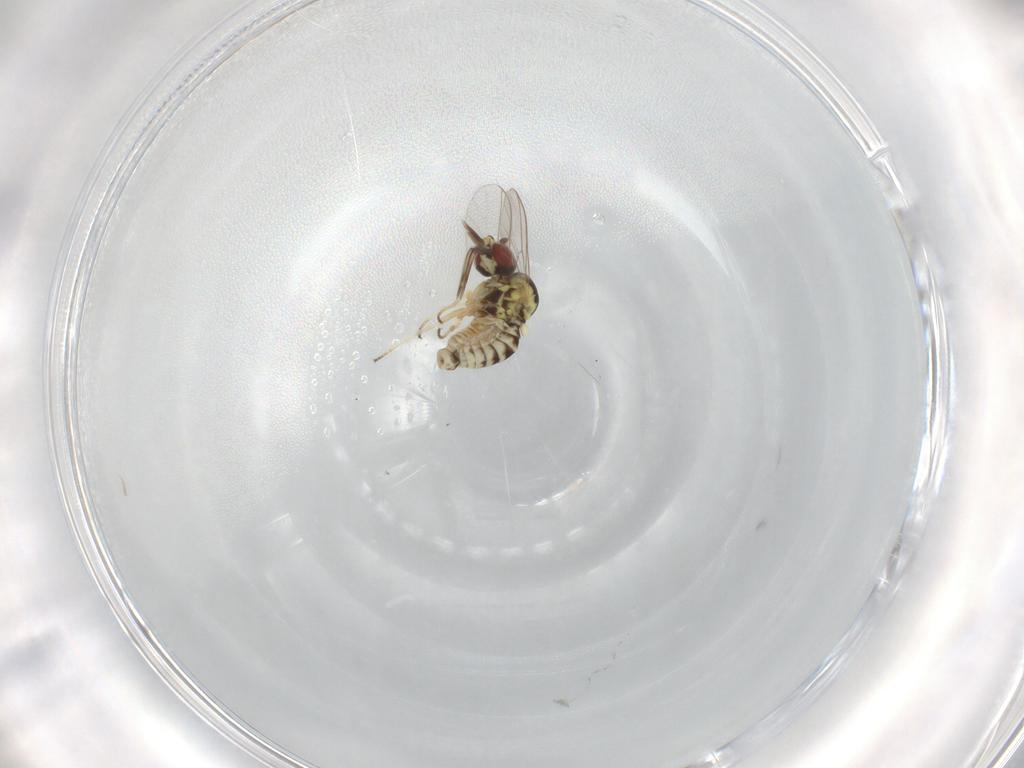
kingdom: Animalia
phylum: Arthropoda
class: Insecta
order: Diptera
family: Bombyliidae
